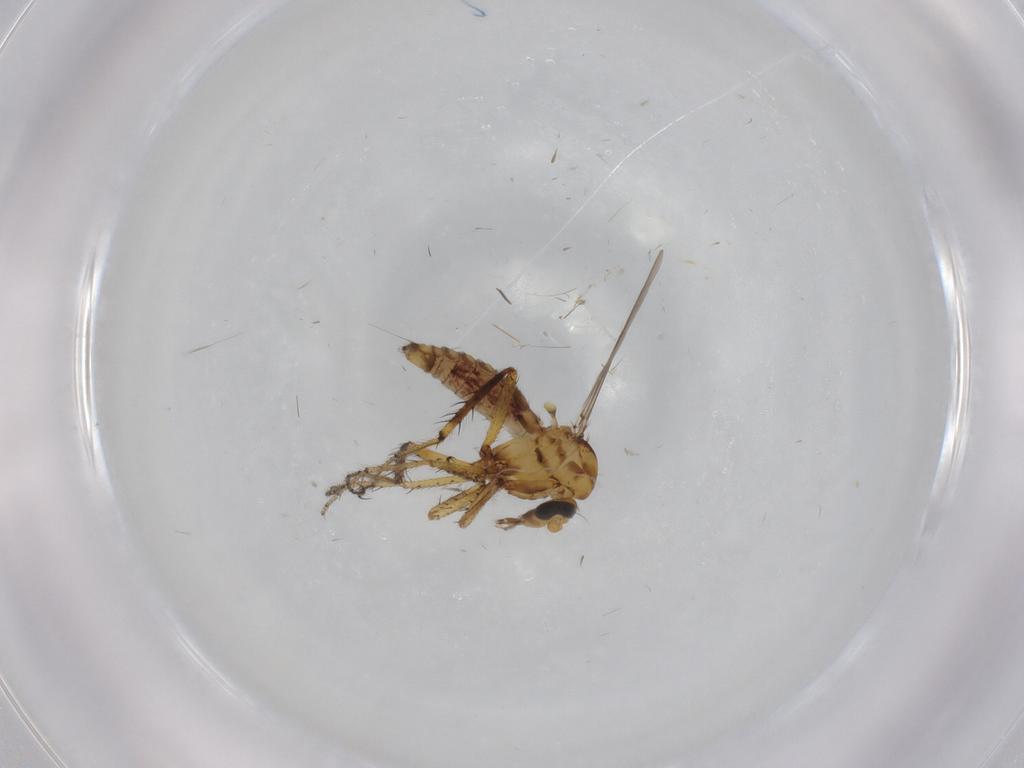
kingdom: Animalia
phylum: Arthropoda
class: Insecta
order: Diptera
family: Ceratopogonidae
